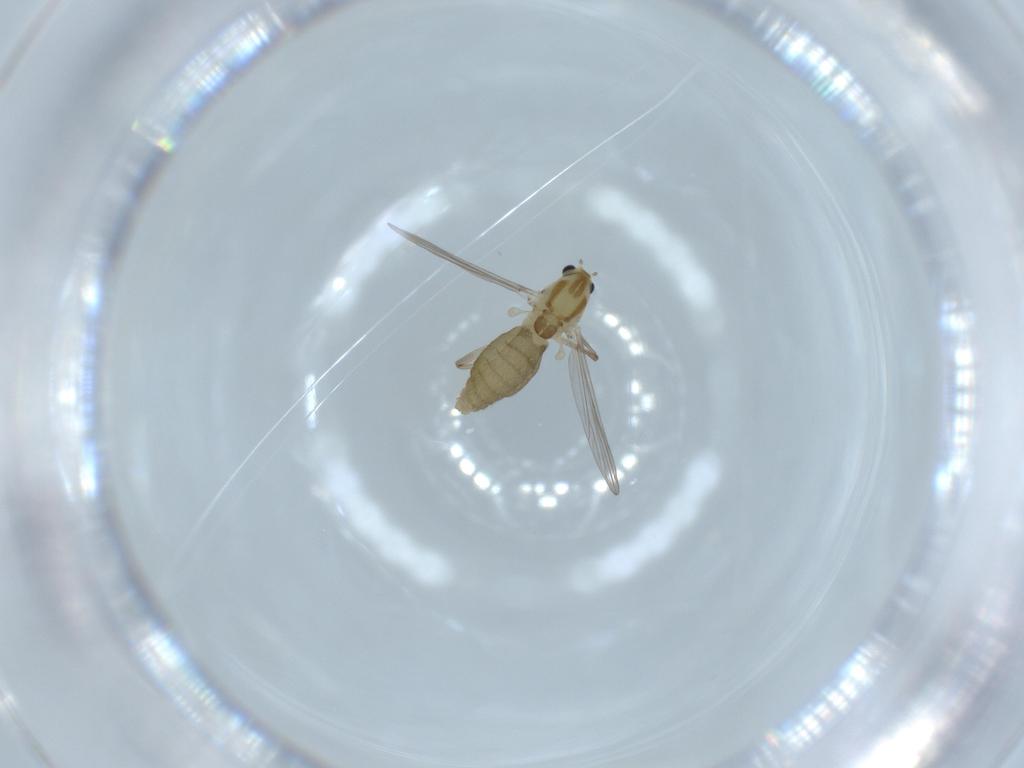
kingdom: Animalia
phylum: Arthropoda
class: Insecta
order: Diptera
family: Chironomidae
